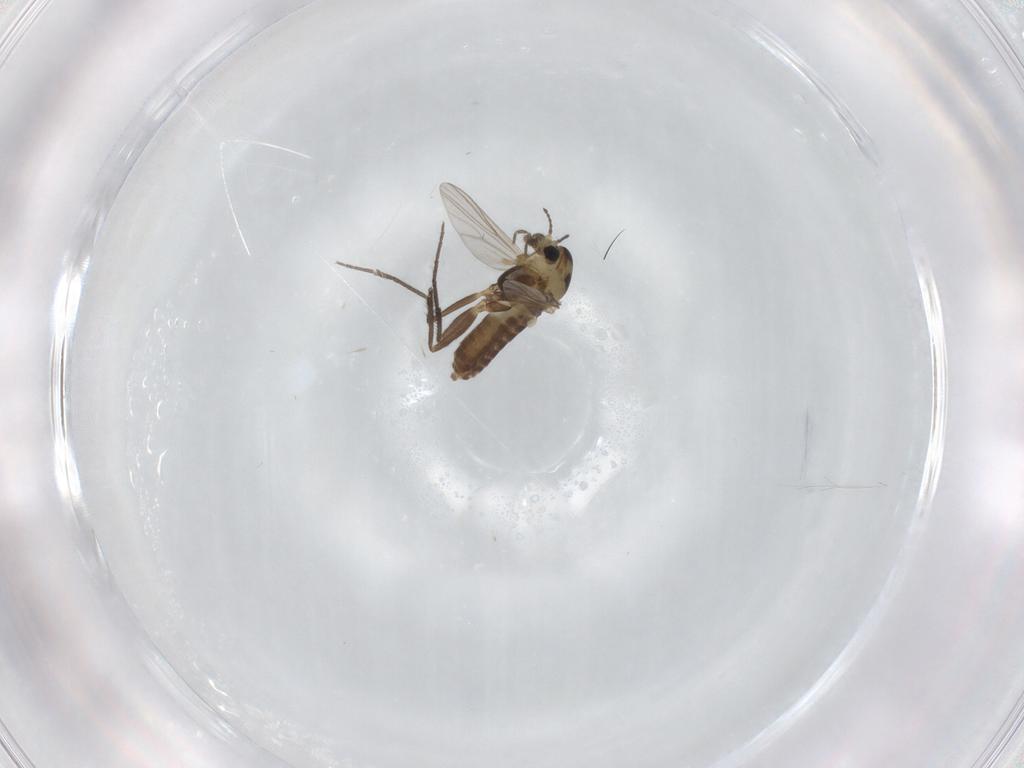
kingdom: Animalia
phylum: Arthropoda
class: Insecta
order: Diptera
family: Chironomidae
